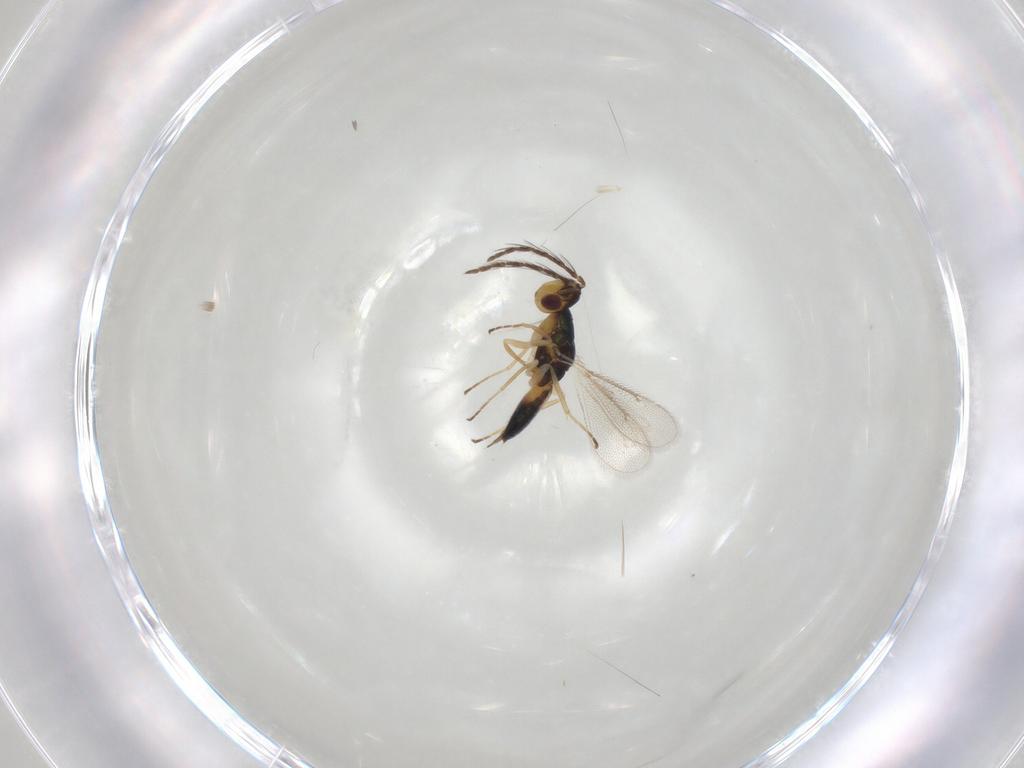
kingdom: Animalia
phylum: Arthropoda
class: Insecta
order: Hymenoptera
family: Eulophidae
